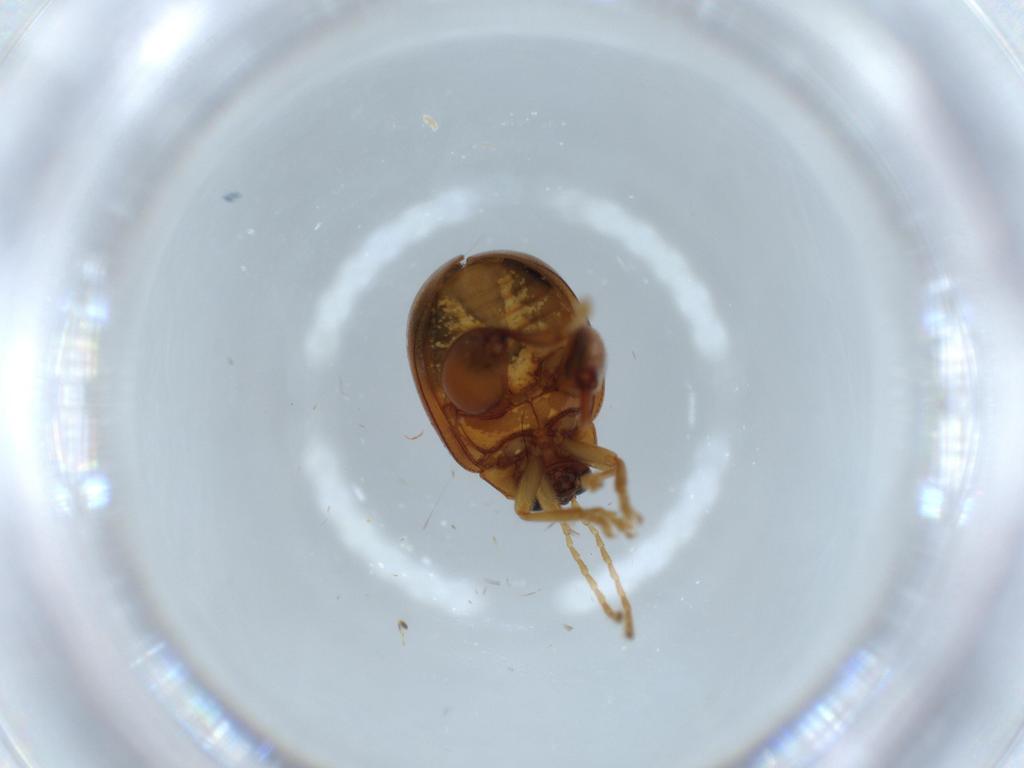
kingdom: Animalia
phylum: Arthropoda
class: Insecta
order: Coleoptera
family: Chrysomelidae
